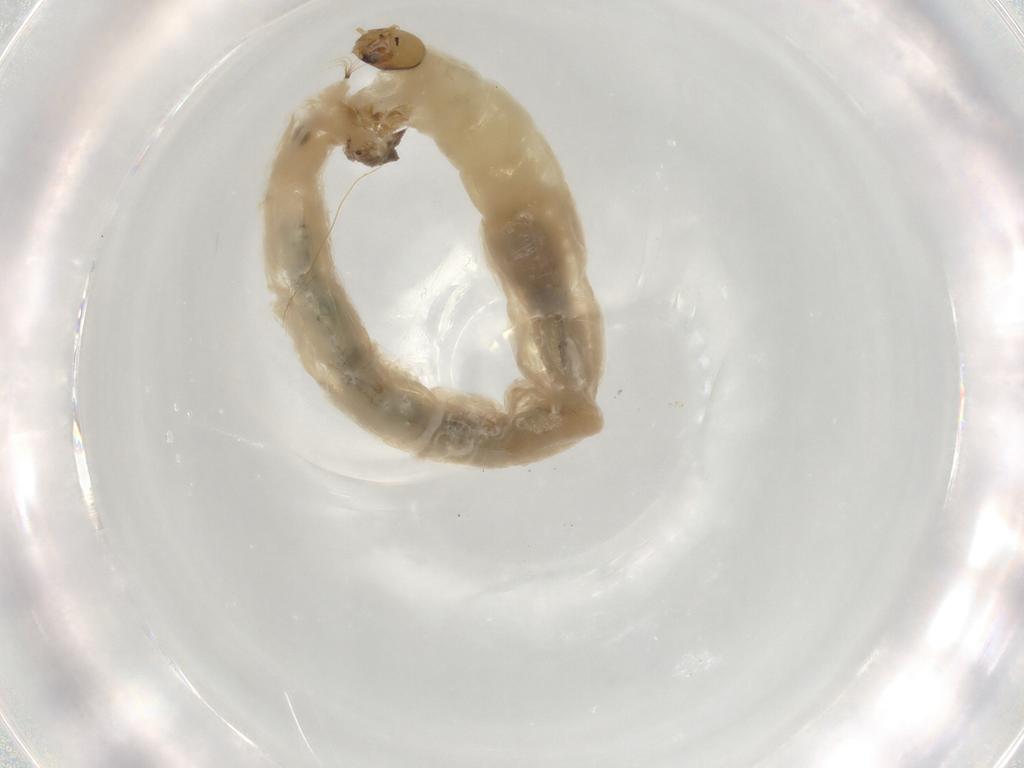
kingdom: Animalia
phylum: Arthropoda
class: Insecta
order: Diptera
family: Chironomidae
